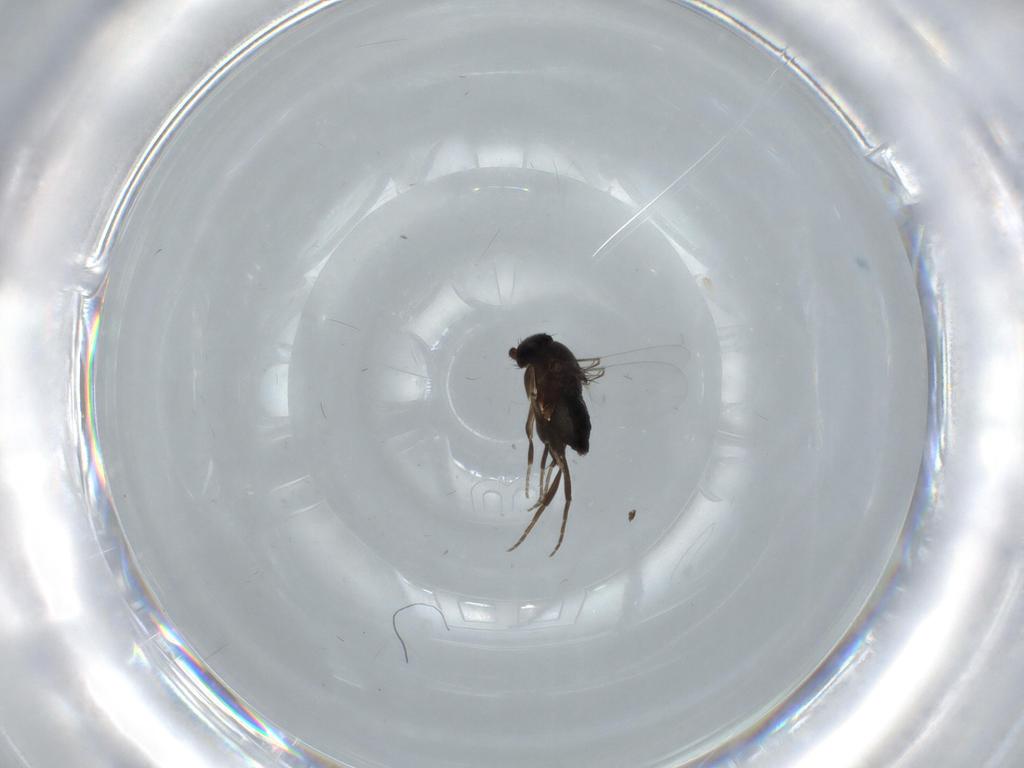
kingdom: Animalia
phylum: Arthropoda
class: Insecta
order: Diptera
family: Phoridae
